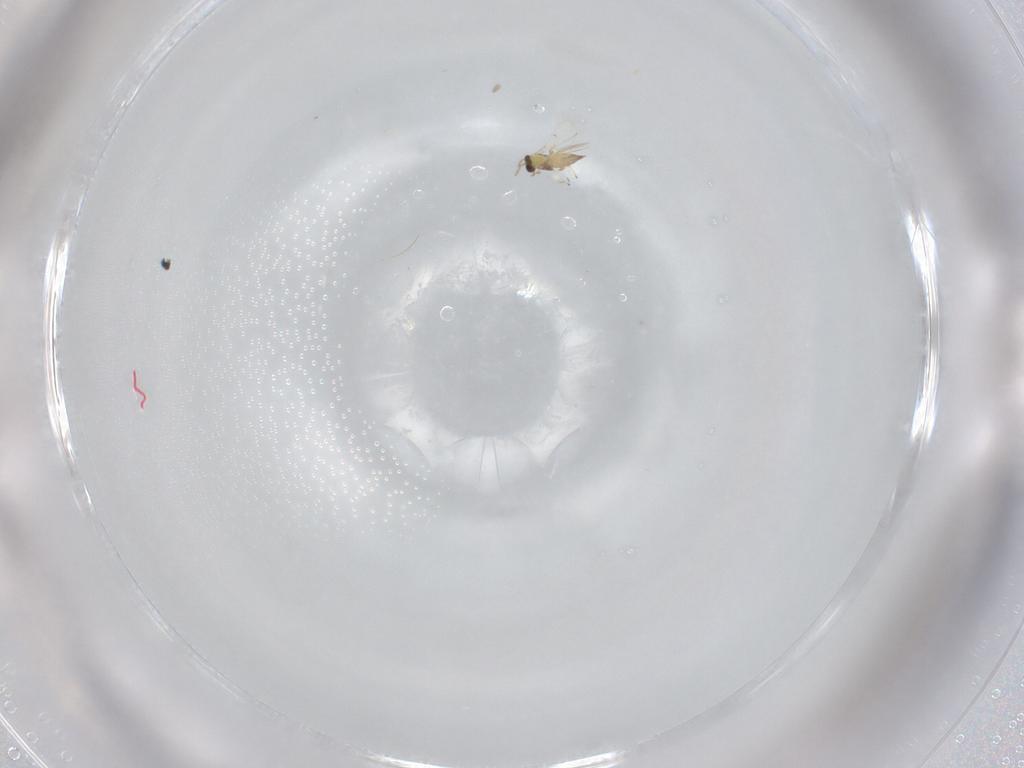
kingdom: Animalia
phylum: Arthropoda
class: Insecta
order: Hymenoptera
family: Trichogrammatidae
